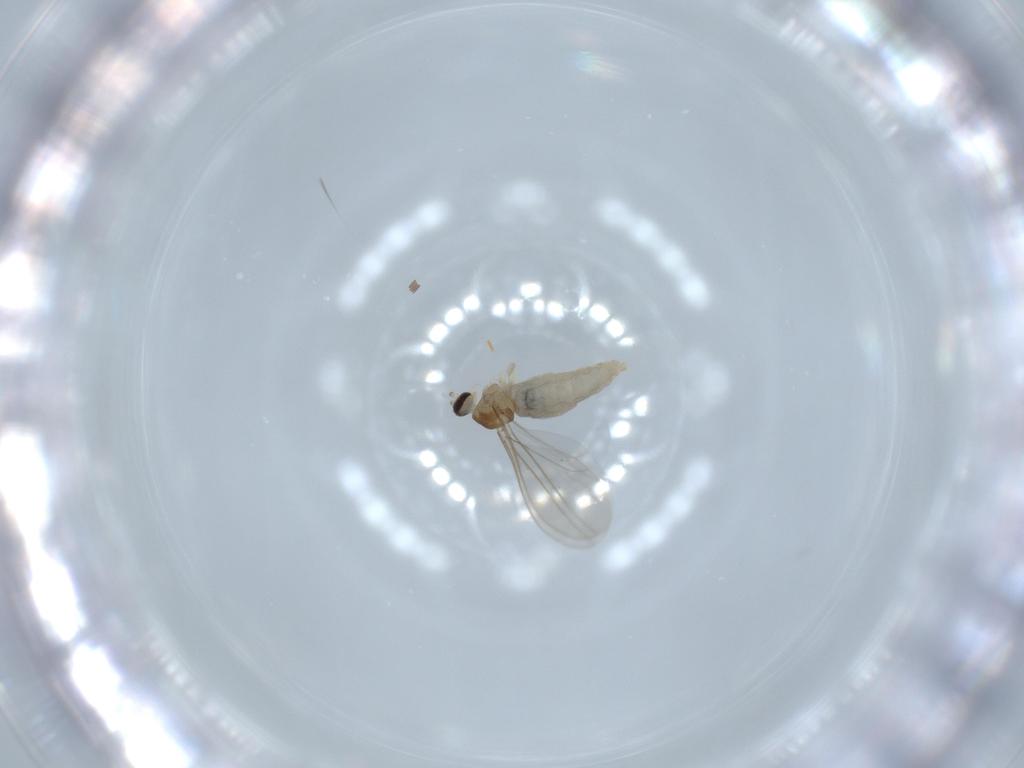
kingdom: Animalia
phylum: Arthropoda
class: Insecta
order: Diptera
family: Cecidomyiidae
